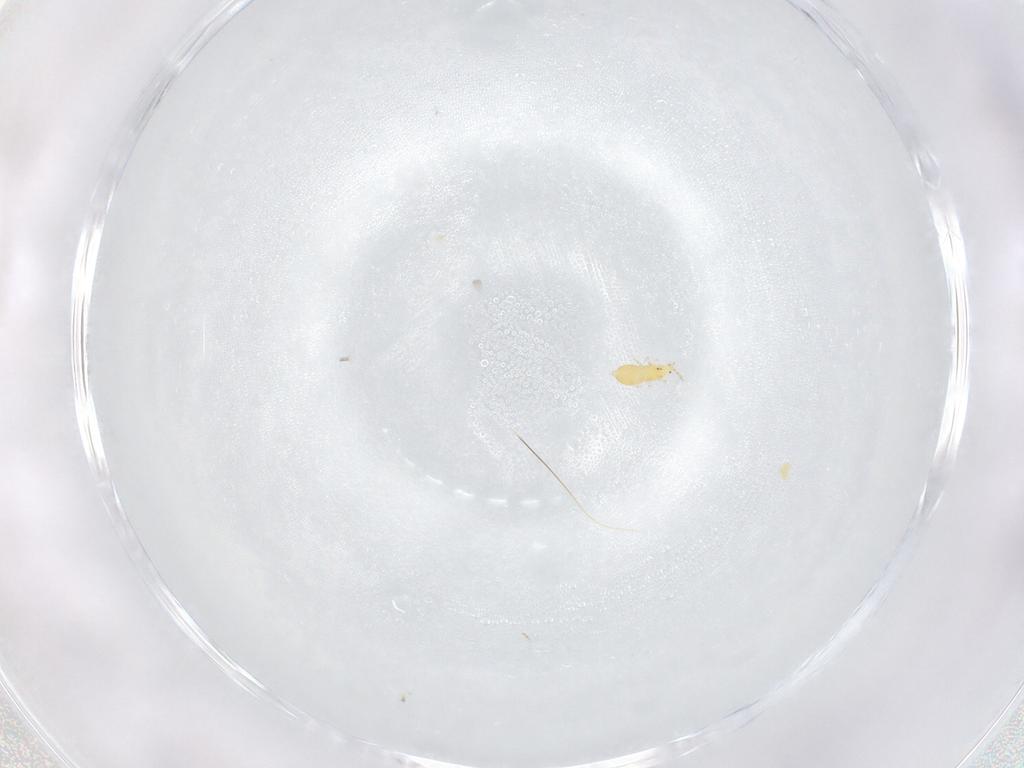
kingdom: Animalia
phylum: Arthropoda
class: Insecta
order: Thysanoptera
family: Thripidae
